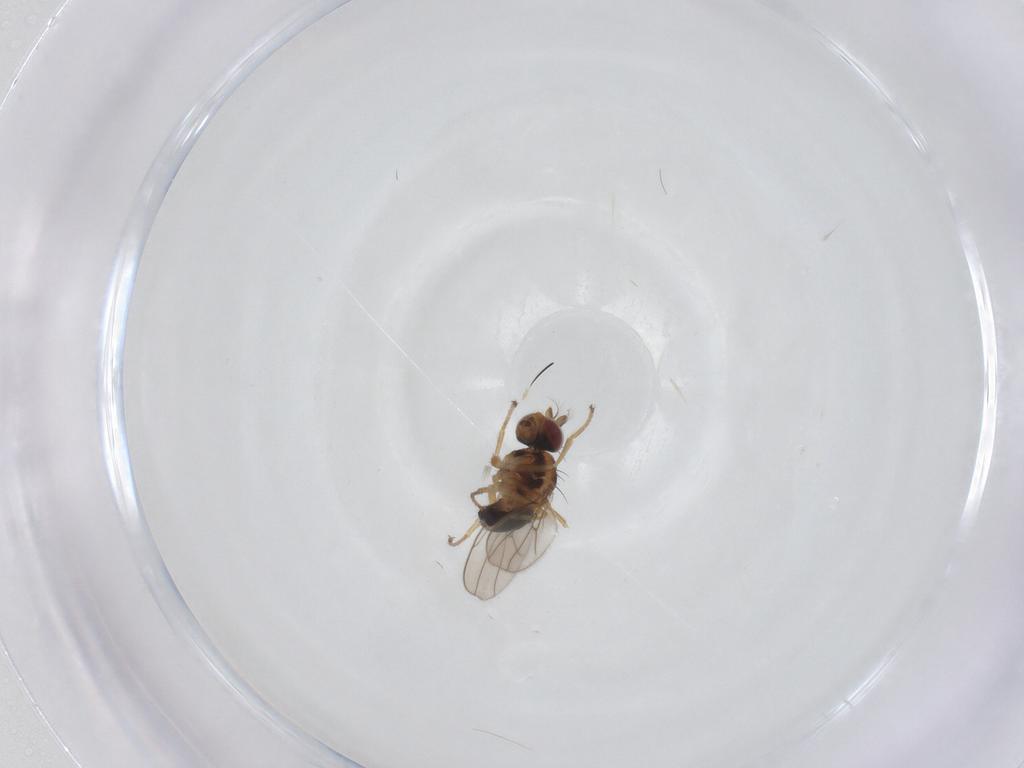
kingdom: Animalia
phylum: Arthropoda
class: Insecta
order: Diptera
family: Ephydridae
